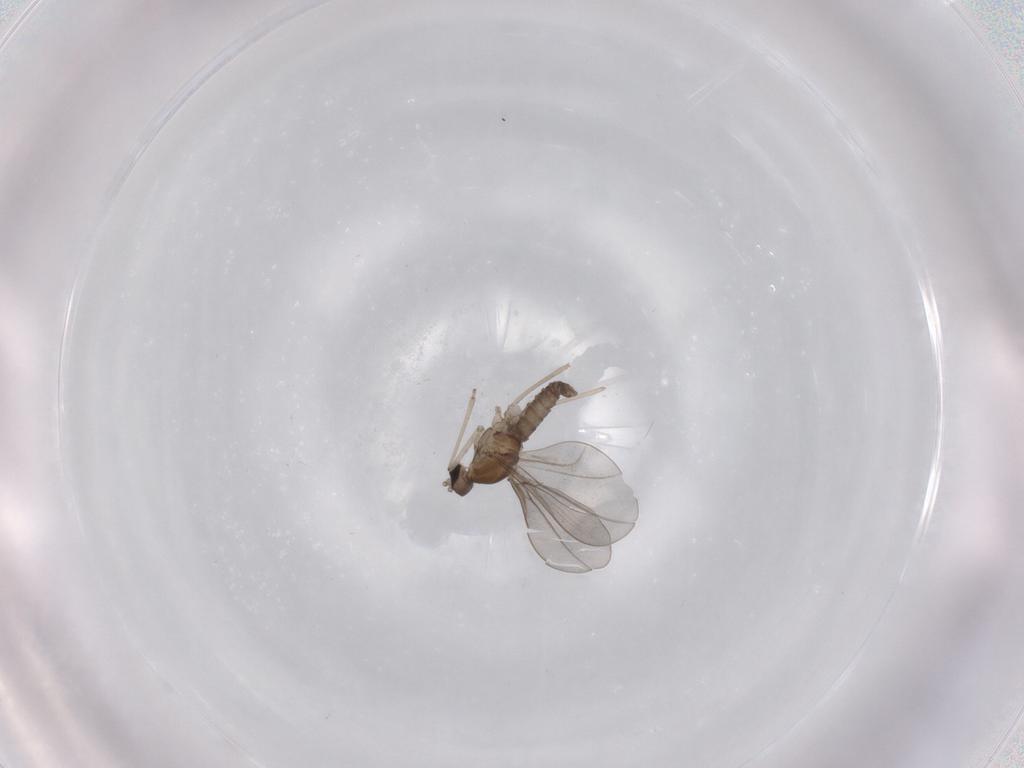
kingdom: Animalia
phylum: Arthropoda
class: Insecta
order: Diptera
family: Cecidomyiidae
